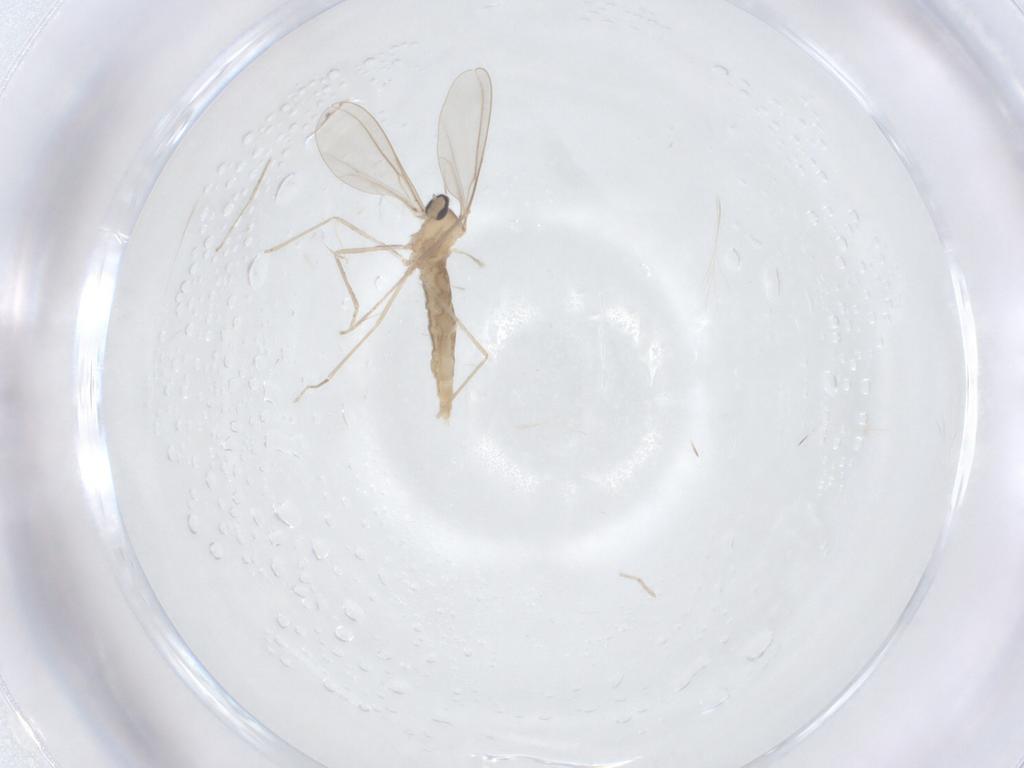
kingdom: Animalia
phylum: Arthropoda
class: Insecta
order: Diptera
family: Cecidomyiidae
